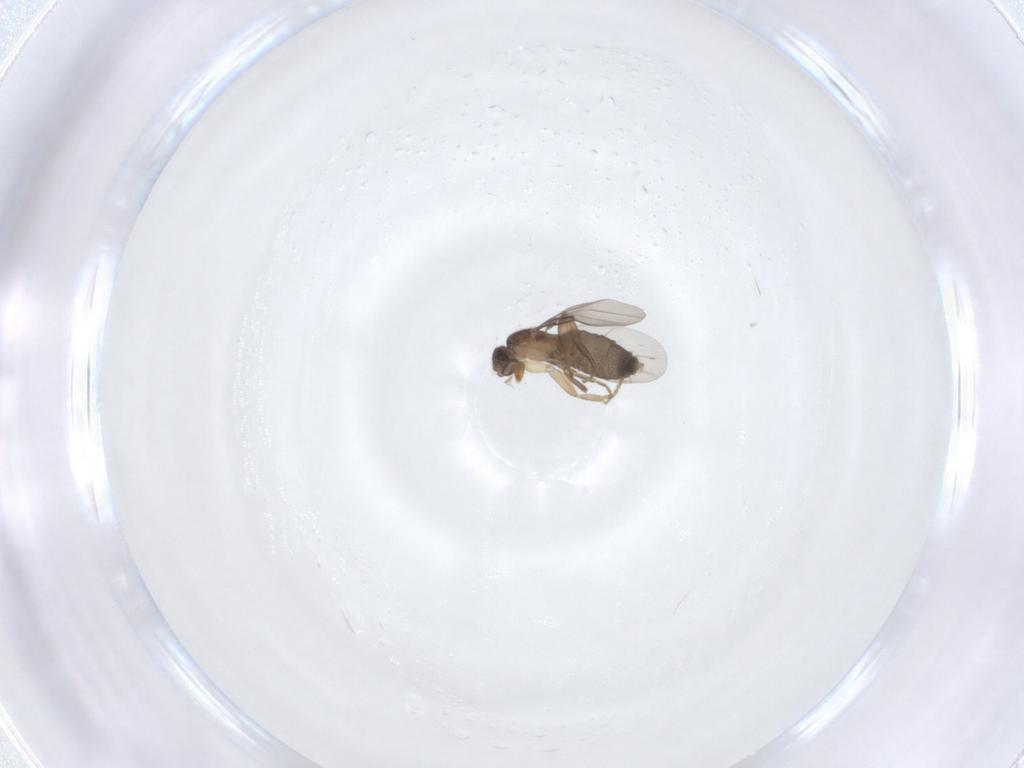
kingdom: Animalia
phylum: Arthropoda
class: Insecta
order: Diptera
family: Phoridae
